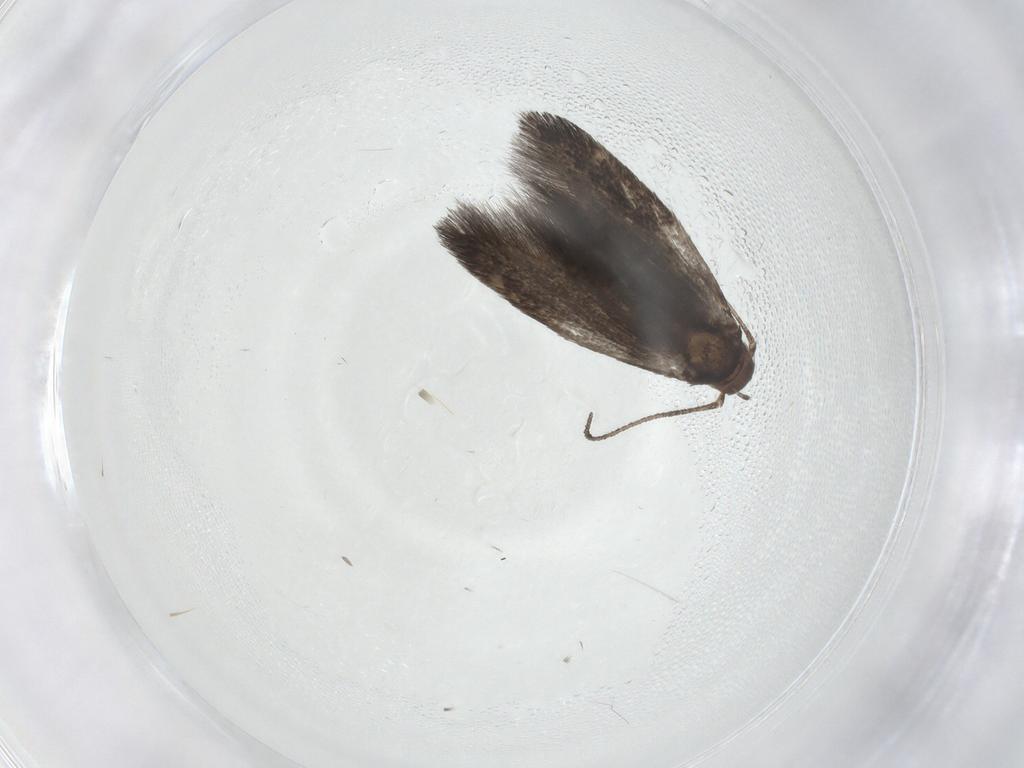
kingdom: Animalia
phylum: Arthropoda
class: Insecta
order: Lepidoptera
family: Elachistidae
